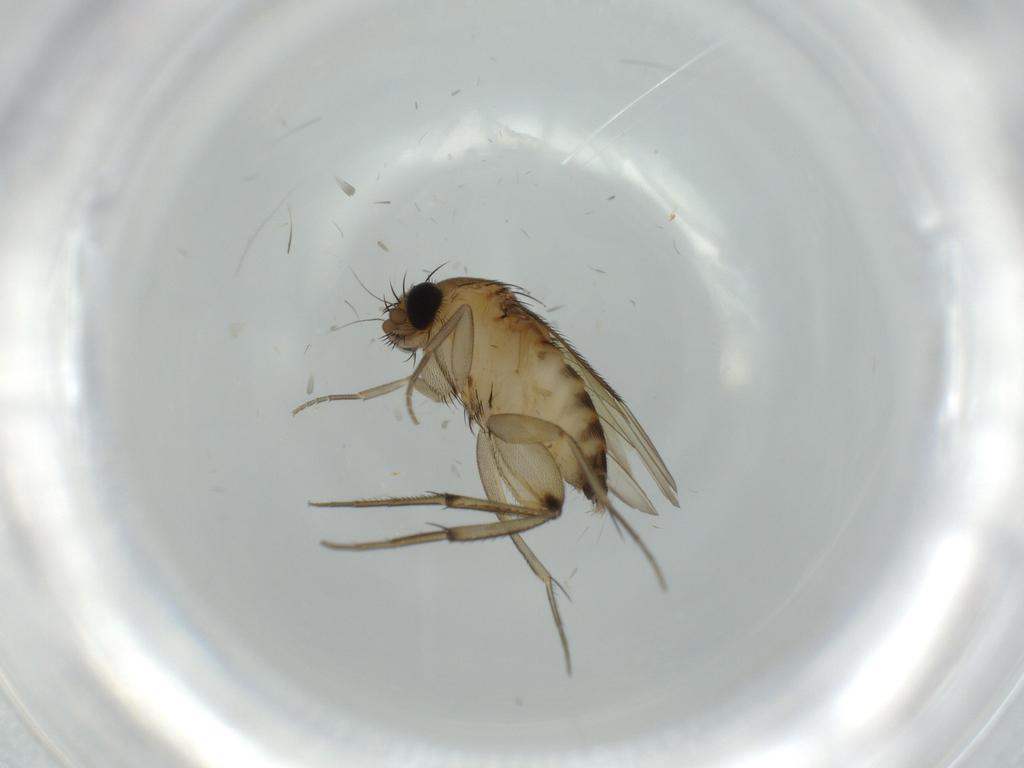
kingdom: Animalia
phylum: Arthropoda
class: Insecta
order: Diptera
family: Phoridae
